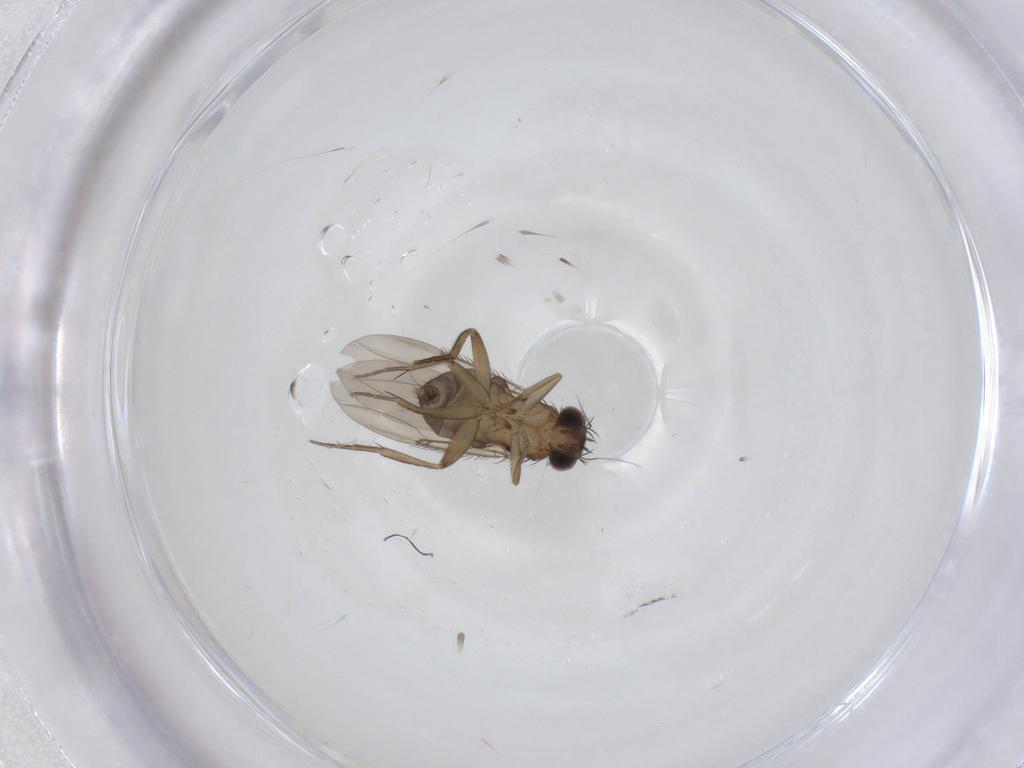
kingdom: Animalia
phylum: Arthropoda
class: Insecta
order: Diptera
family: Phoridae
